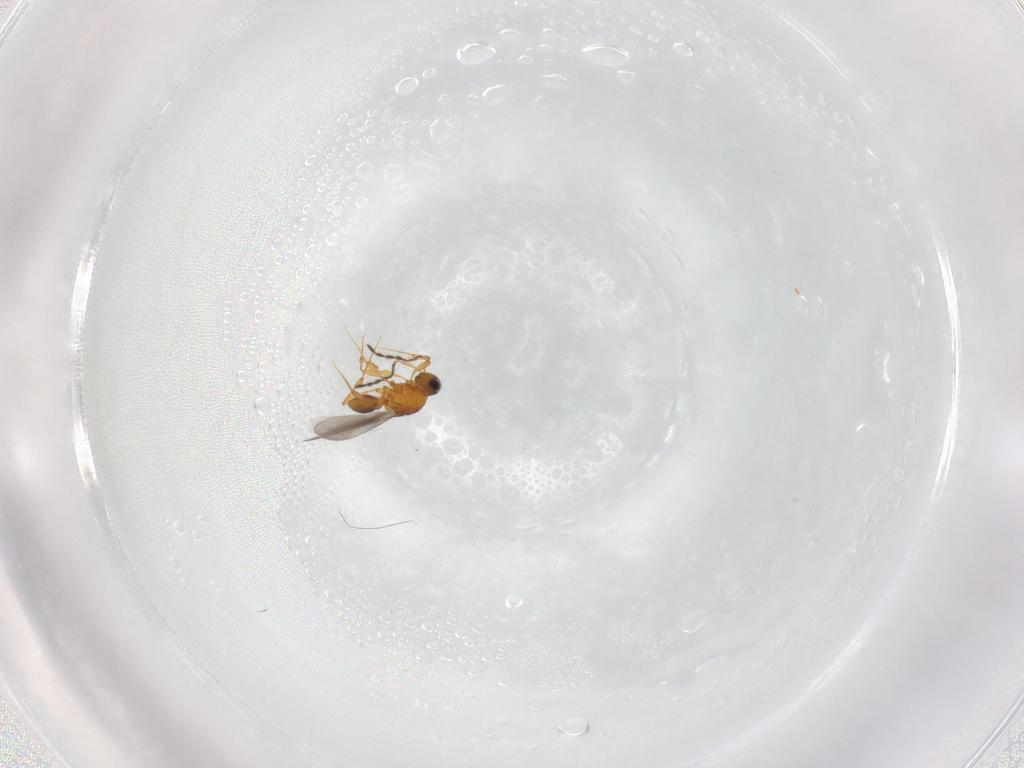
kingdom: Animalia
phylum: Arthropoda
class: Insecta
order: Hymenoptera
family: Platygastridae
